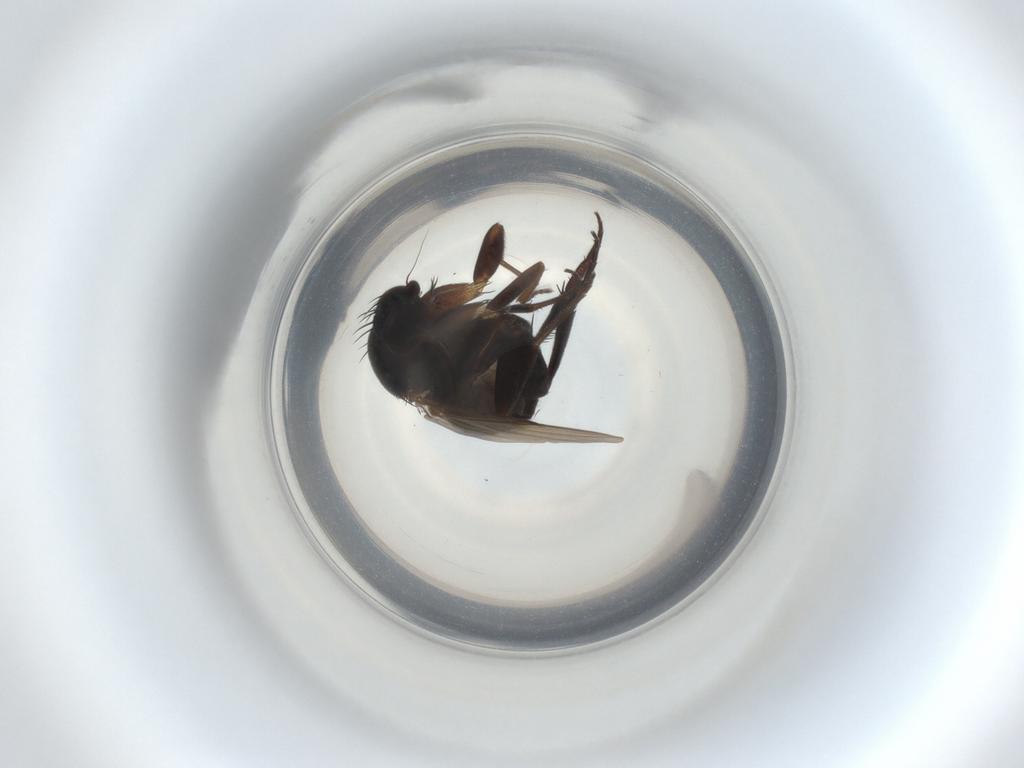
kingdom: Animalia
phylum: Arthropoda
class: Insecta
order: Diptera
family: Phoridae
